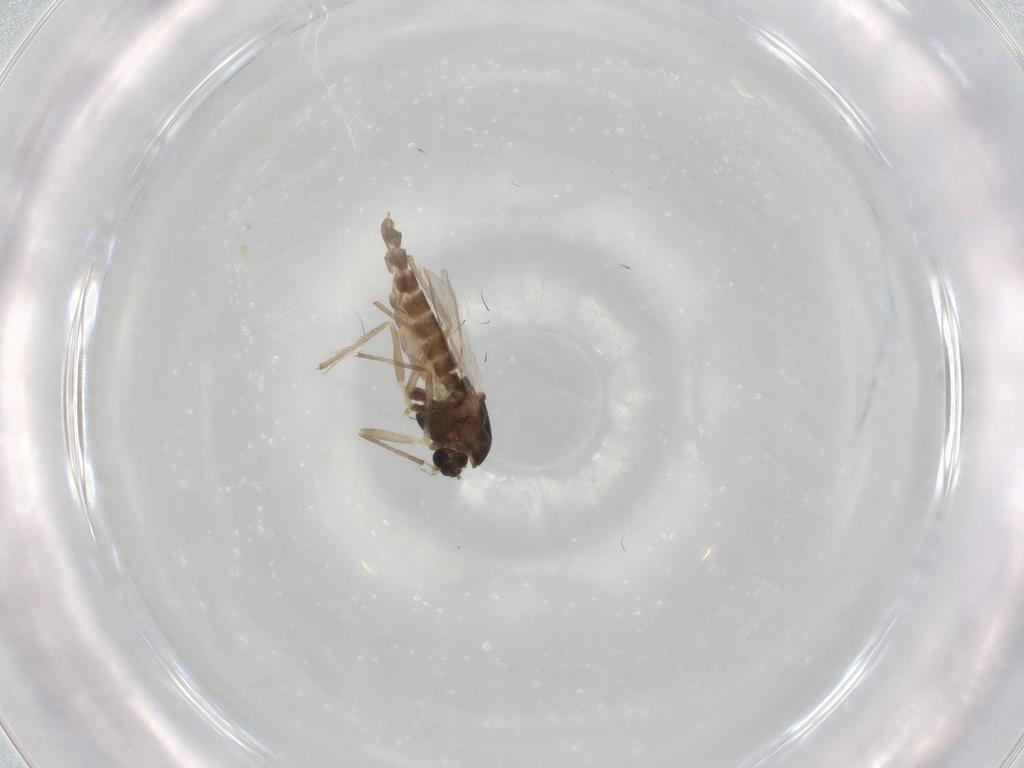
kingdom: Animalia
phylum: Arthropoda
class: Insecta
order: Diptera
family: Chironomidae
